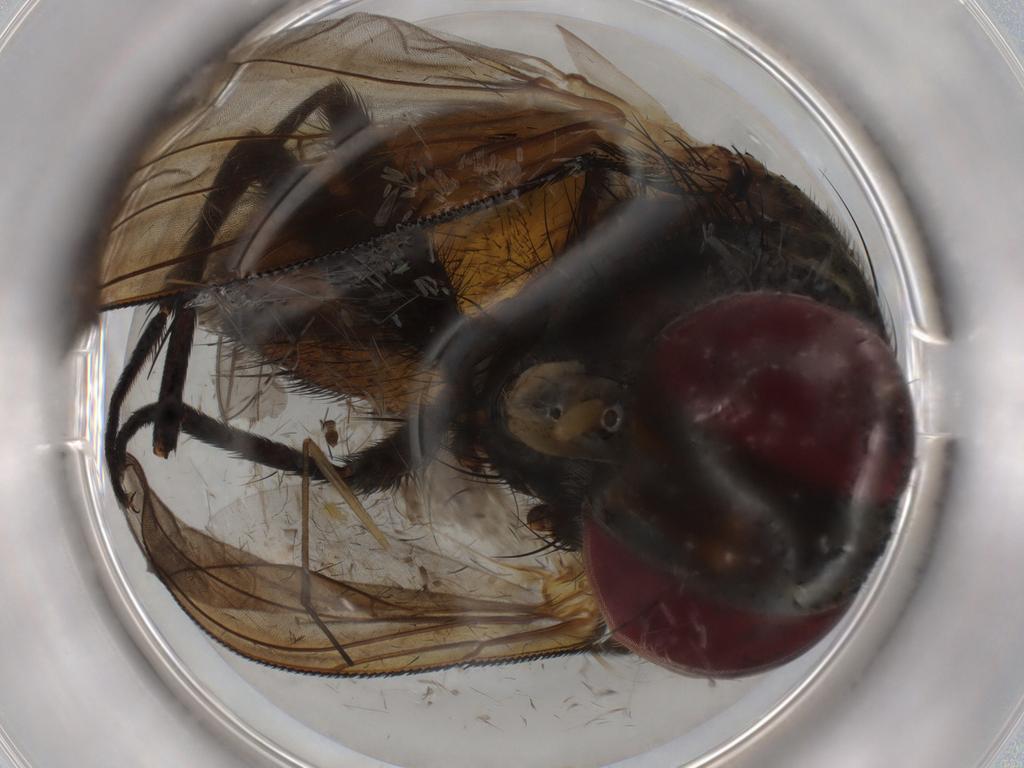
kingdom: Animalia
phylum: Arthropoda
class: Insecta
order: Diptera
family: Tachinidae
